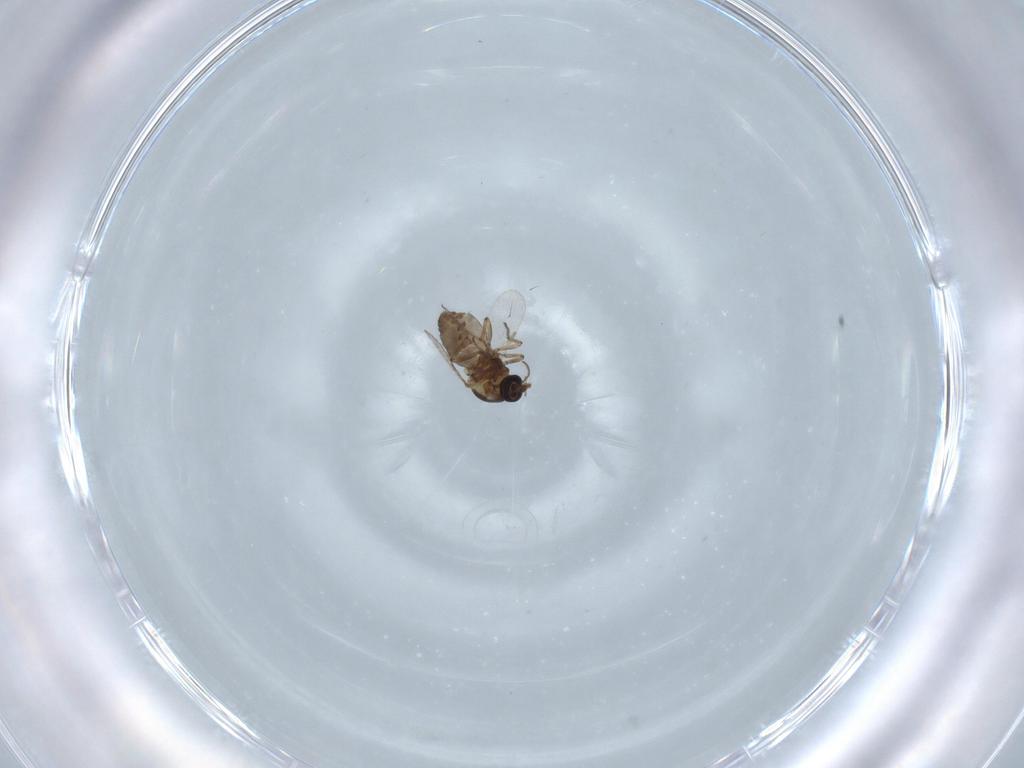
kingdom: Animalia
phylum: Arthropoda
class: Insecta
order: Diptera
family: Ceratopogonidae
